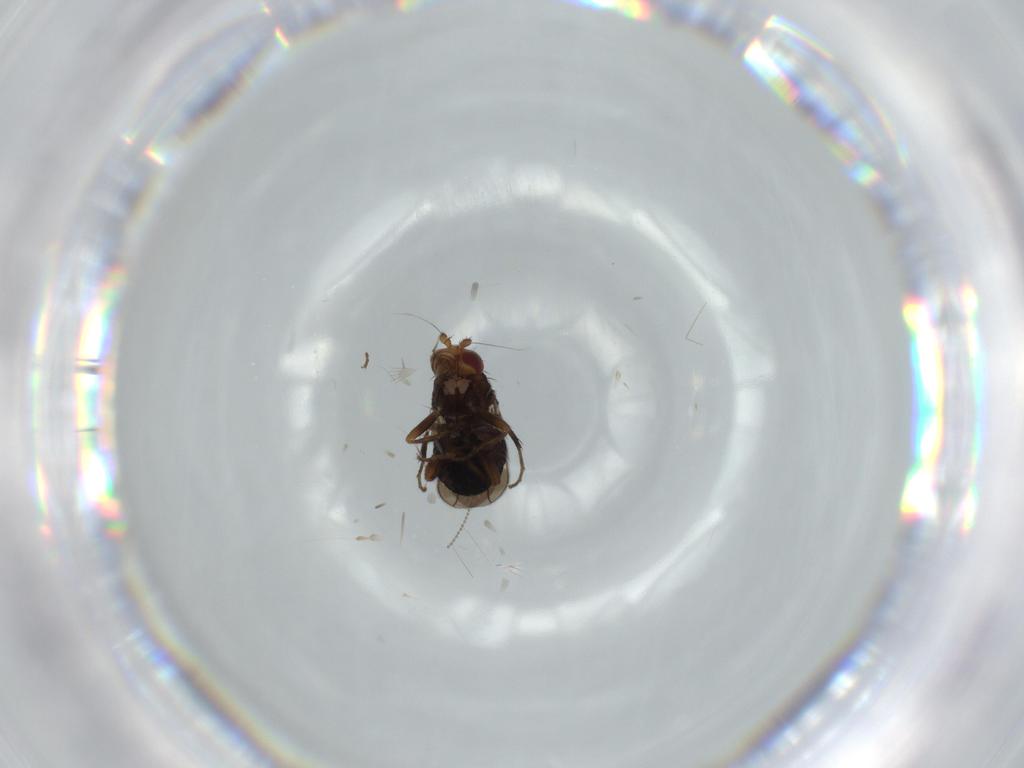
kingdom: Animalia
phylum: Arthropoda
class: Insecta
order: Diptera
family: Sphaeroceridae
